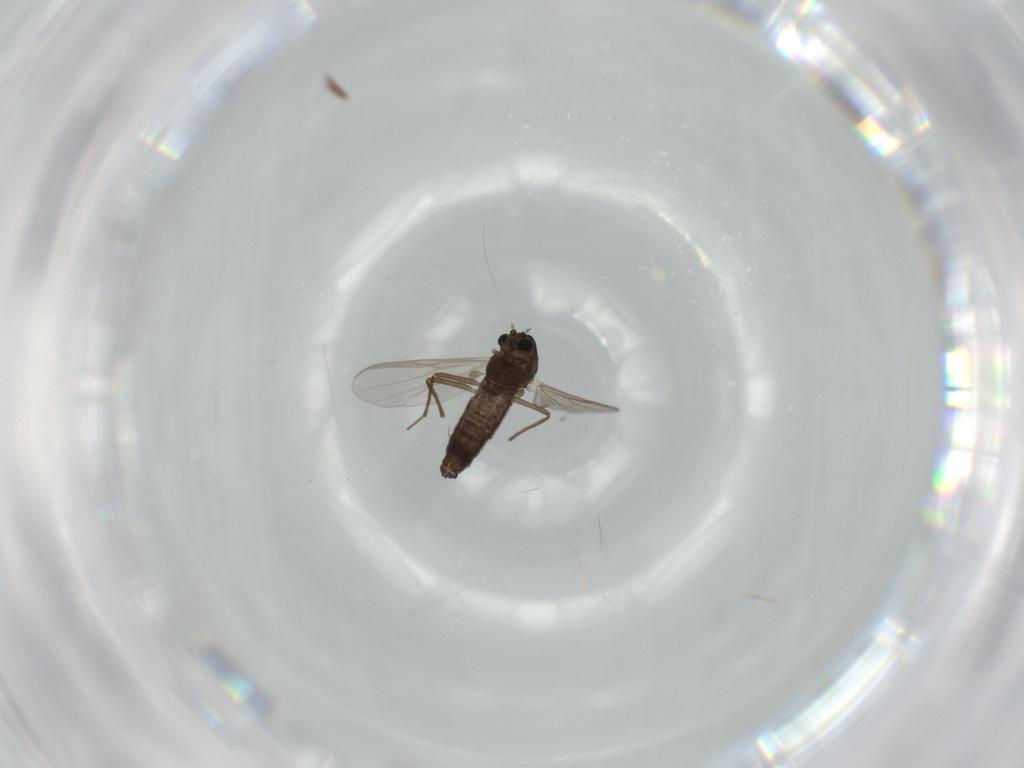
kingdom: Animalia
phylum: Arthropoda
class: Insecta
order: Diptera
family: Chironomidae
